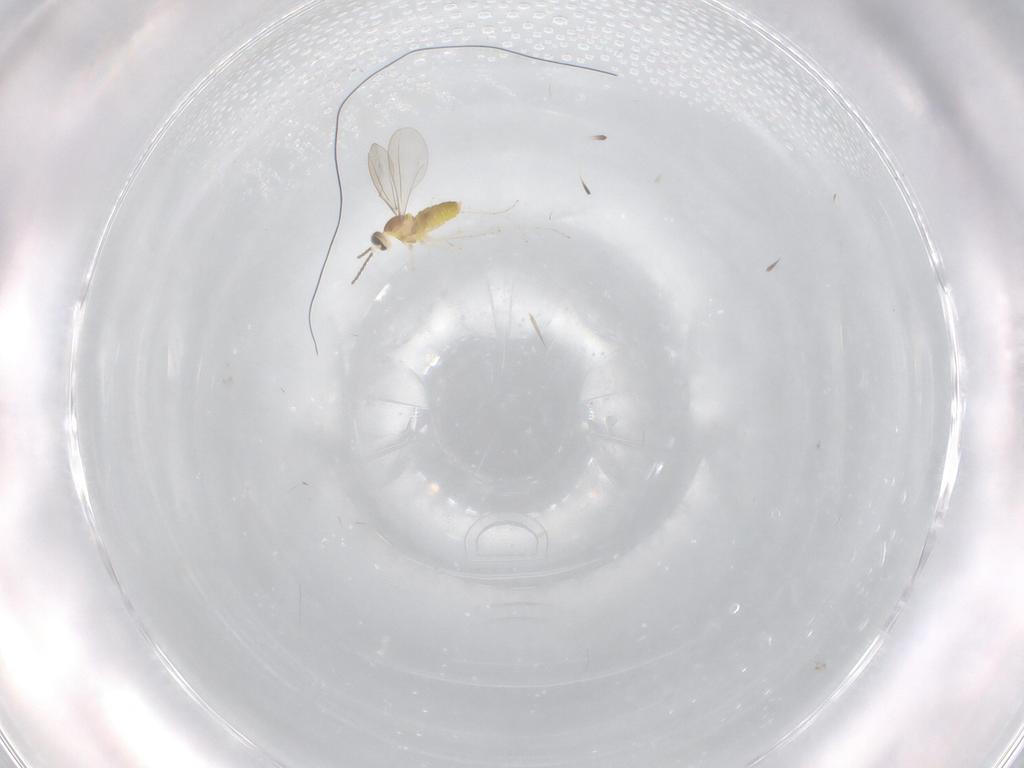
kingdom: Animalia
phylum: Arthropoda
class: Insecta
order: Diptera
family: Cecidomyiidae
